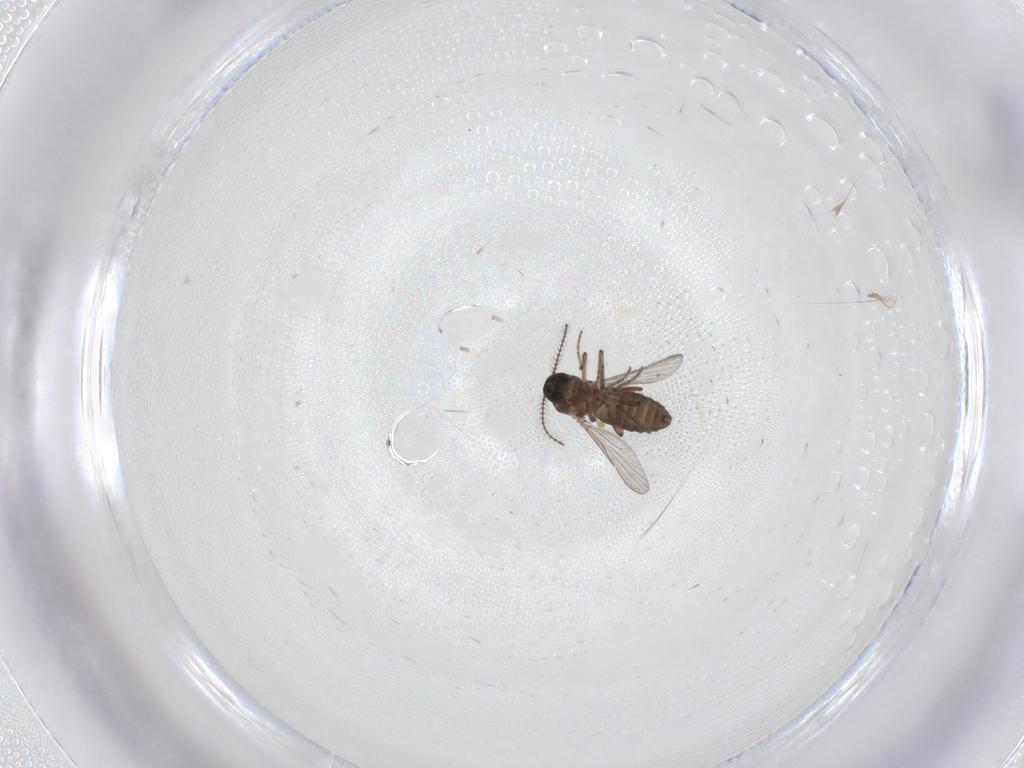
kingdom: Animalia
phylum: Arthropoda
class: Insecta
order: Diptera
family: Ceratopogonidae
